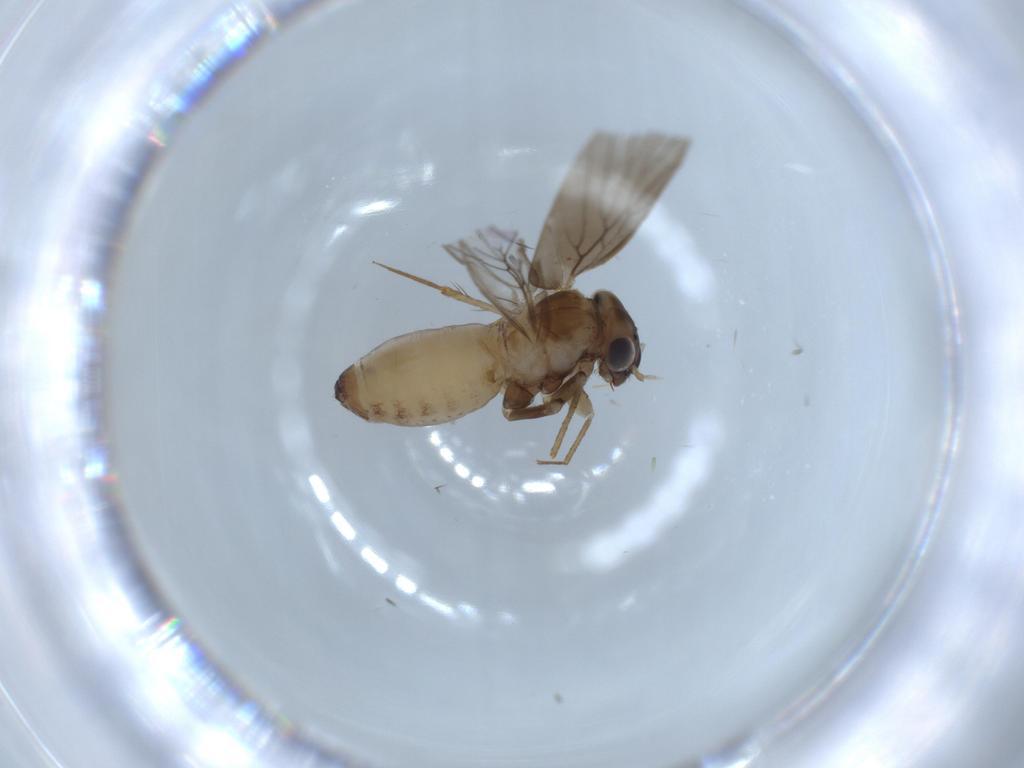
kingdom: Animalia
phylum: Arthropoda
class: Insecta
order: Psocodea
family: Lepidopsocidae
